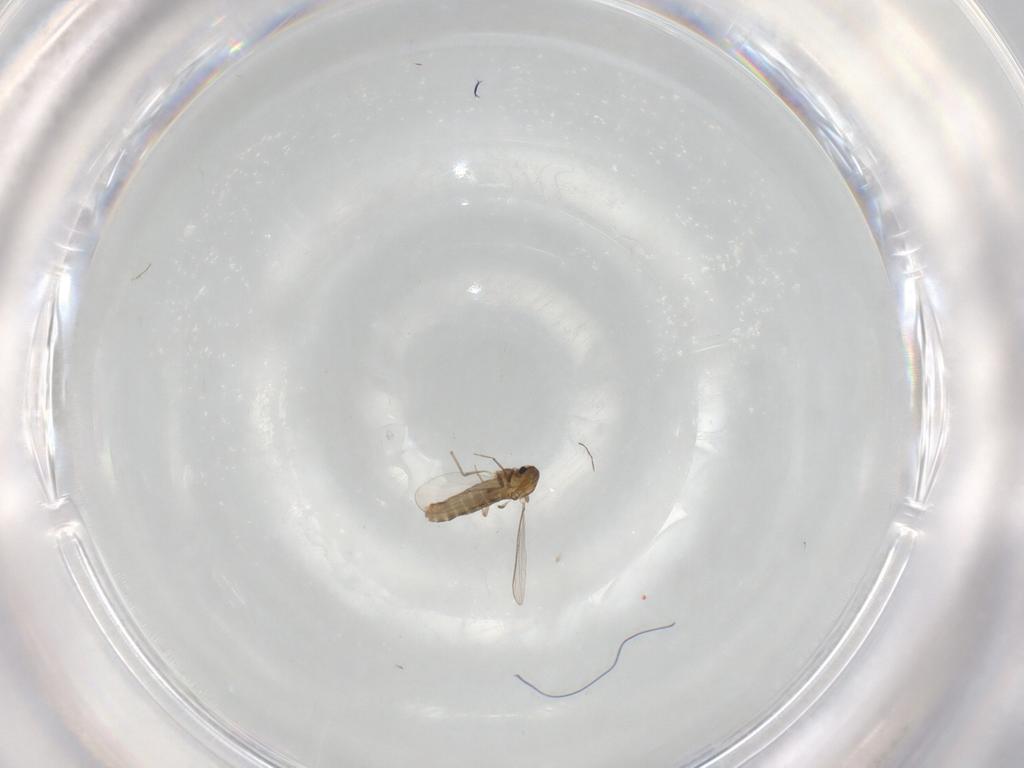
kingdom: Animalia
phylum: Arthropoda
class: Insecta
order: Diptera
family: Chironomidae
